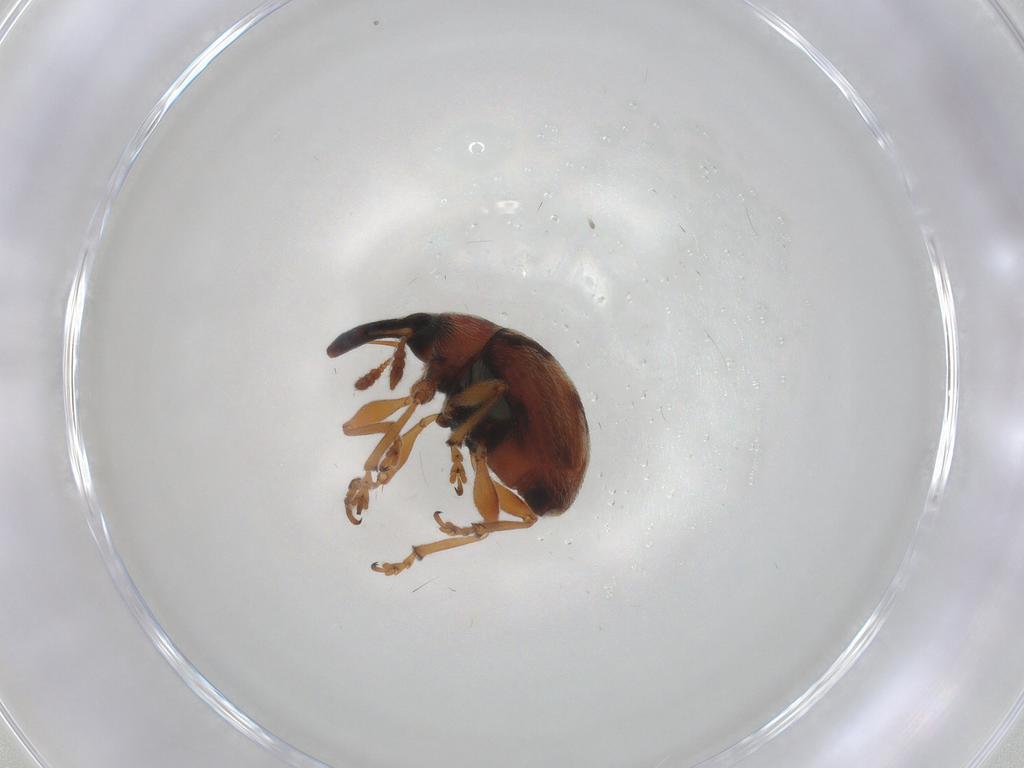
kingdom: Animalia
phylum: Arthropoda
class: Insecta
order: Coleoptera
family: Brentidae
